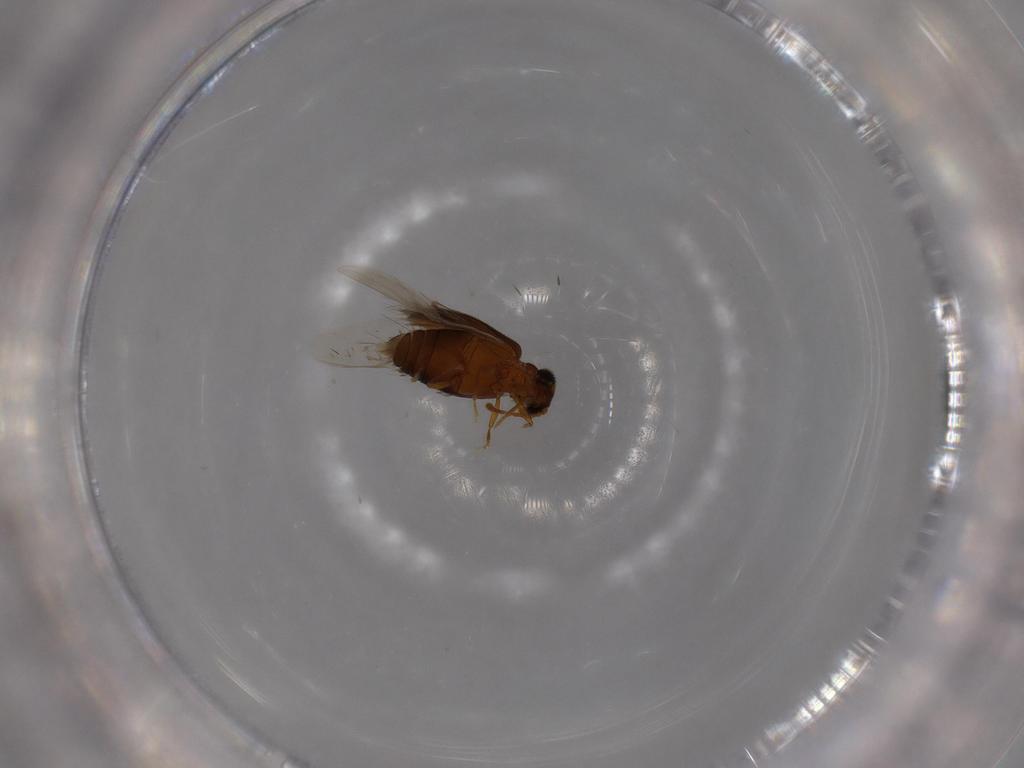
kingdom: Animalia
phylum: Arthropoda
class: Insecta
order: Coleoptera
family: Aderidae
